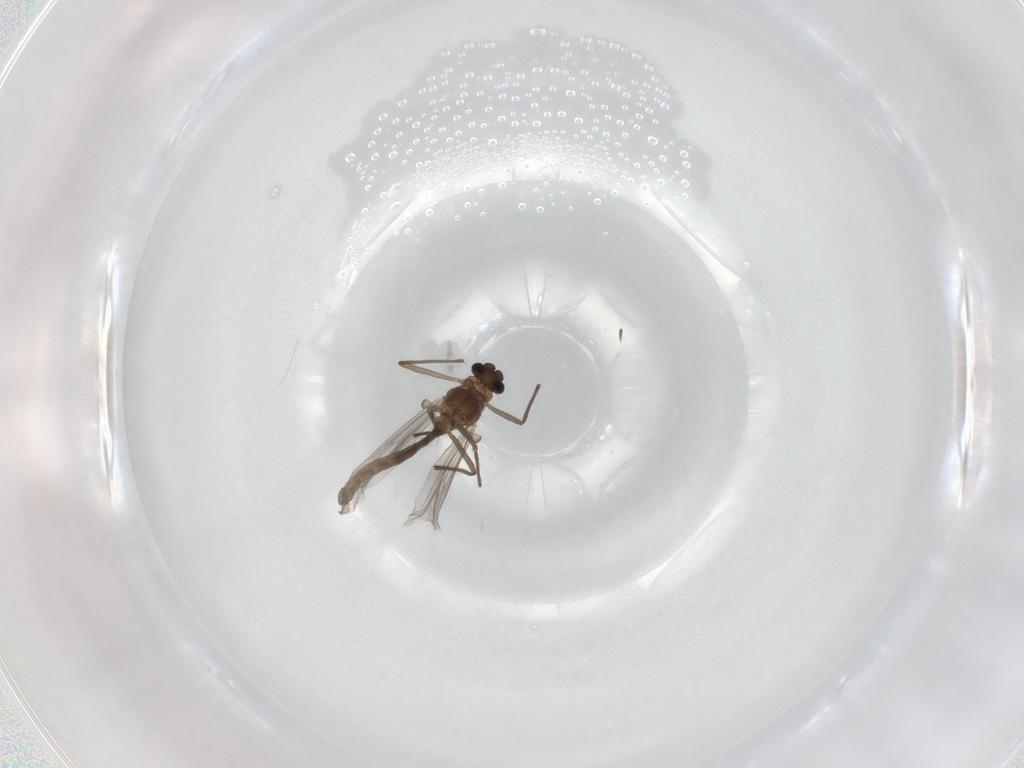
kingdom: Animalia
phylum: Arthropoda
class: Insecta
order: Diptera
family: Chironomidae
